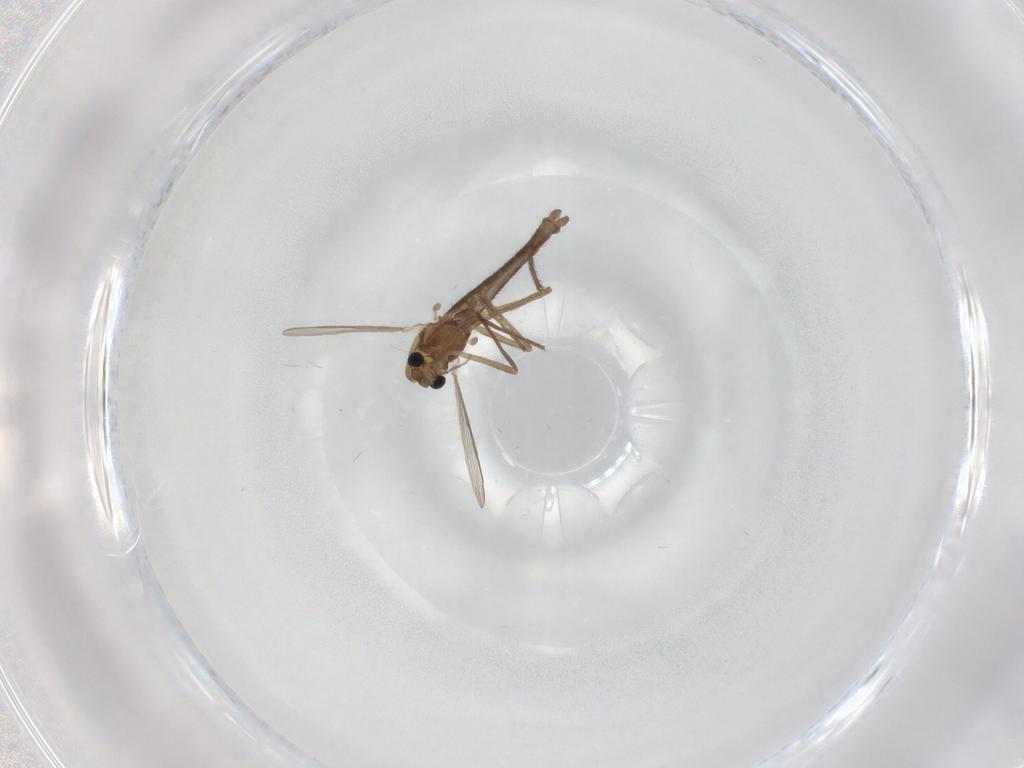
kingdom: Animalia
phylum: Arthropoda
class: Insecta
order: Diptera
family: Chironomidae
